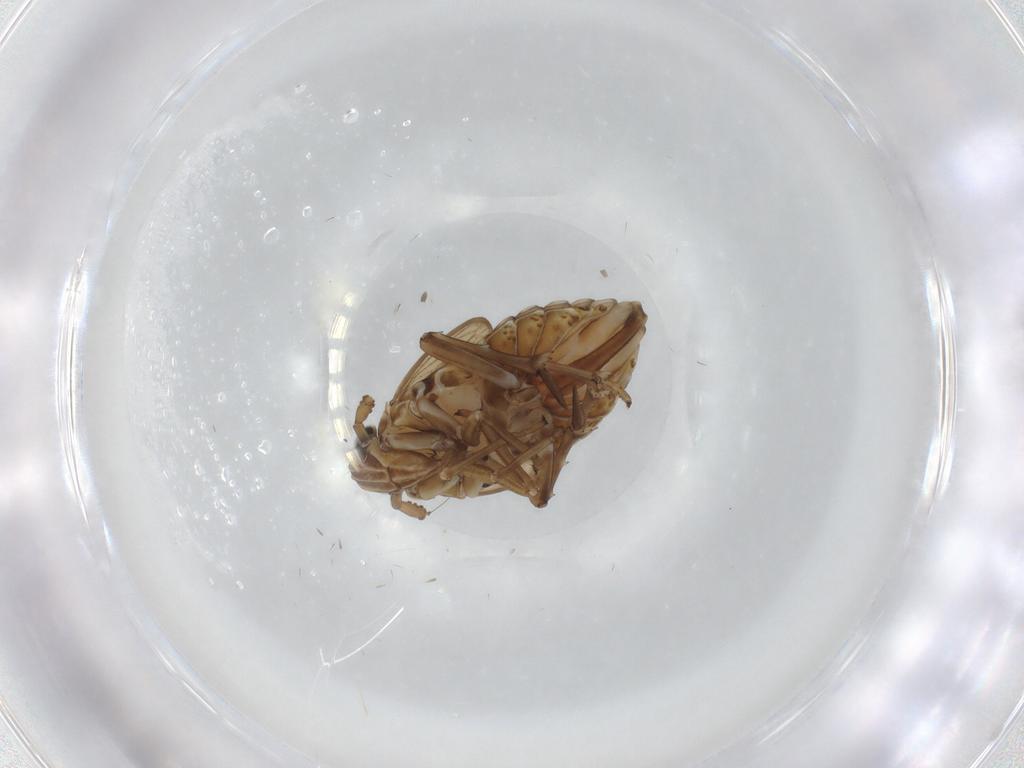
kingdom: Animalia
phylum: Arthropoda
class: Insecta
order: Hemiptera
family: Delphacidae
